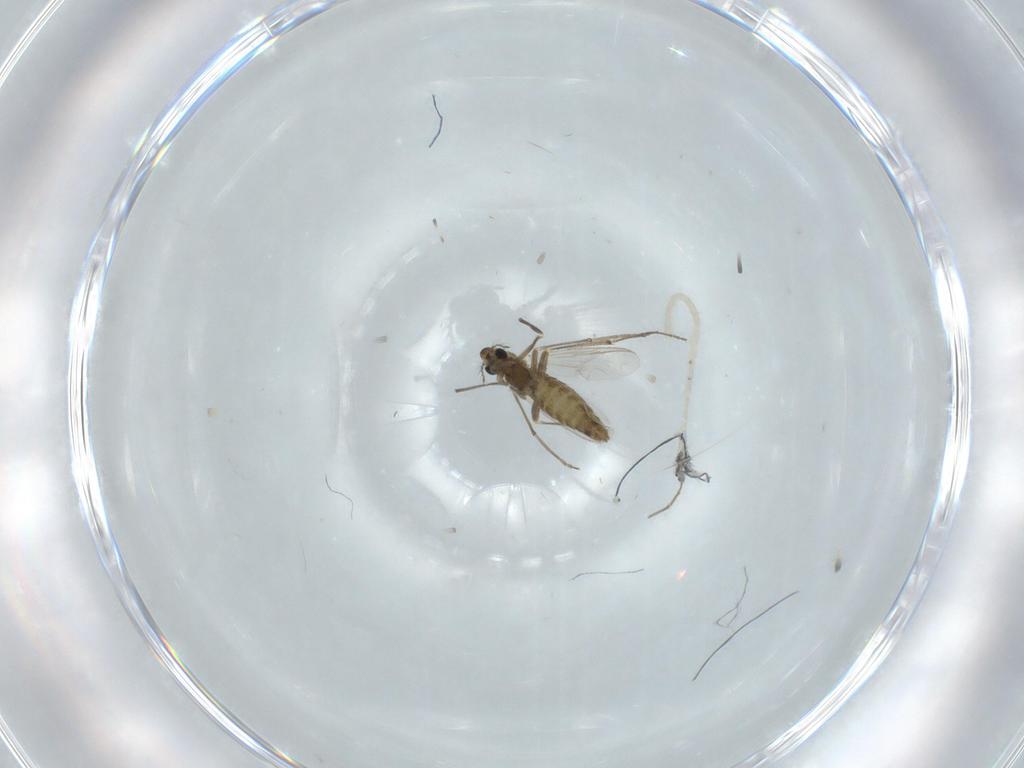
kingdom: Animalia
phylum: Arthropoda
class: Insecta
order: Diptera
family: Chironomidae
